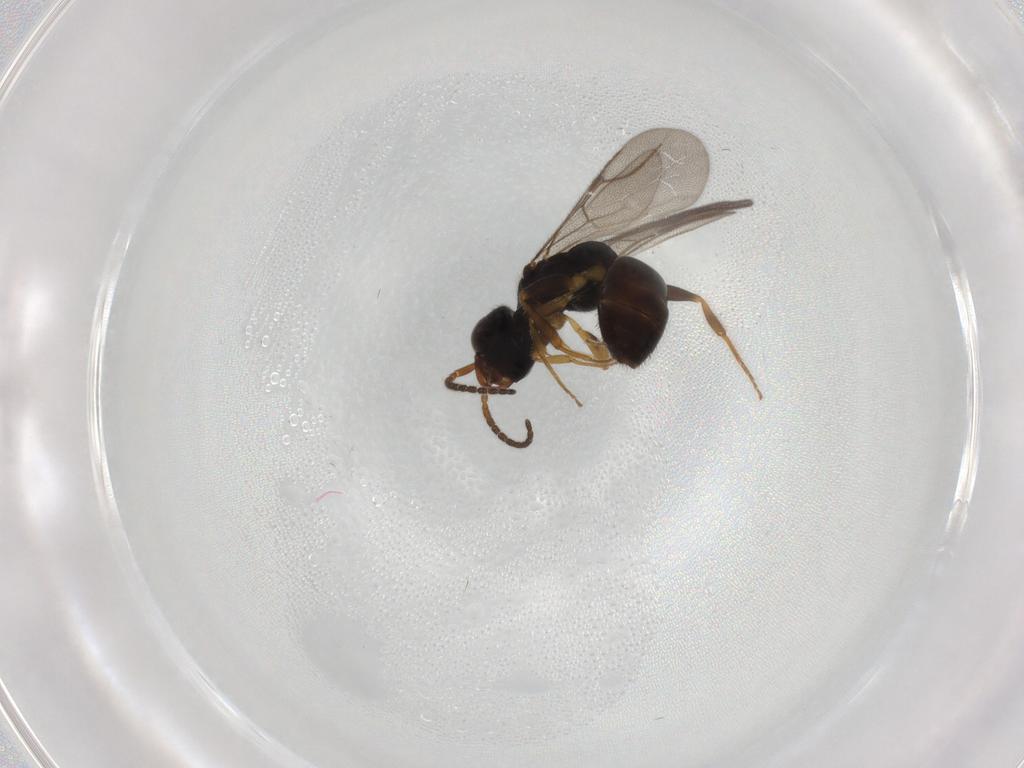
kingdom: Animalia
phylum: Arthropoda
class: Insecta
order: Hymenoptera
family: Bethylidae
